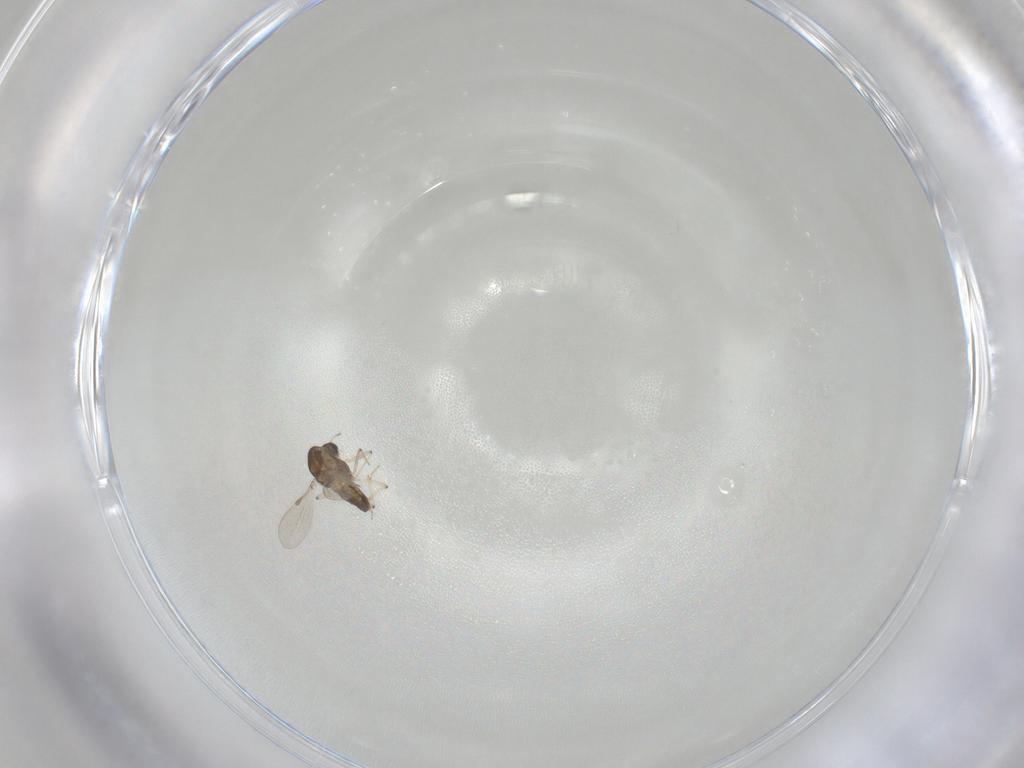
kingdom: Animalia
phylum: Arthropoda
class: Insecta
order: Diptera
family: Chironomidae
